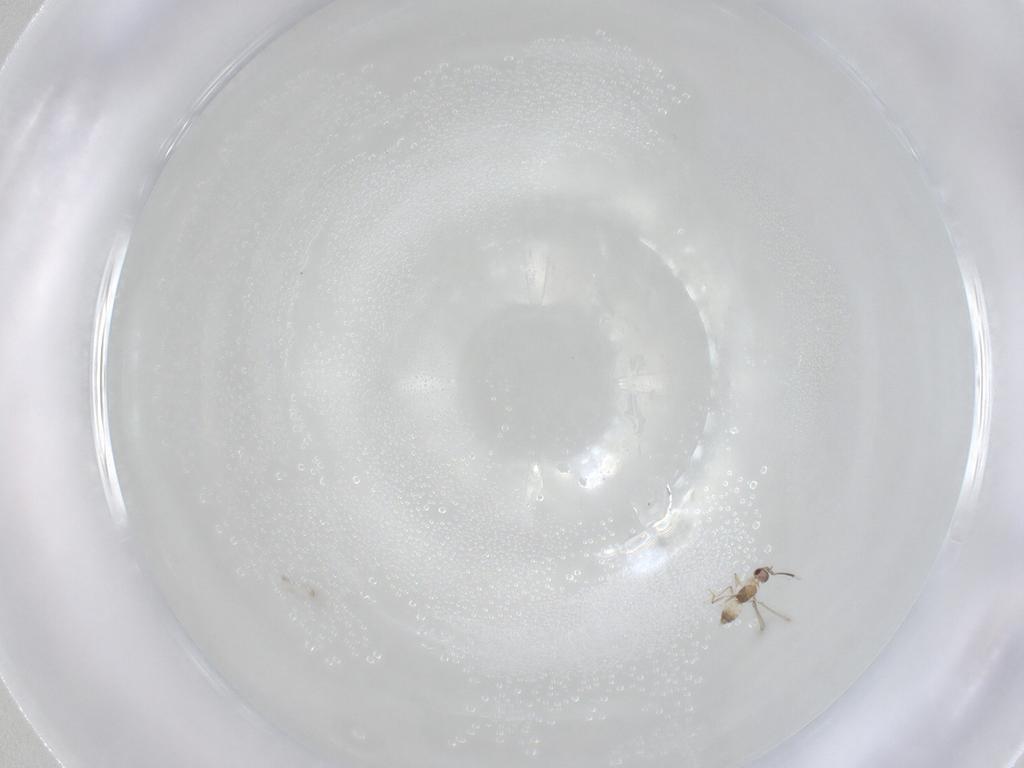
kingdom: Animalia
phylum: Arthropoda
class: Insecta
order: Hymenoptera
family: Mymaridae
